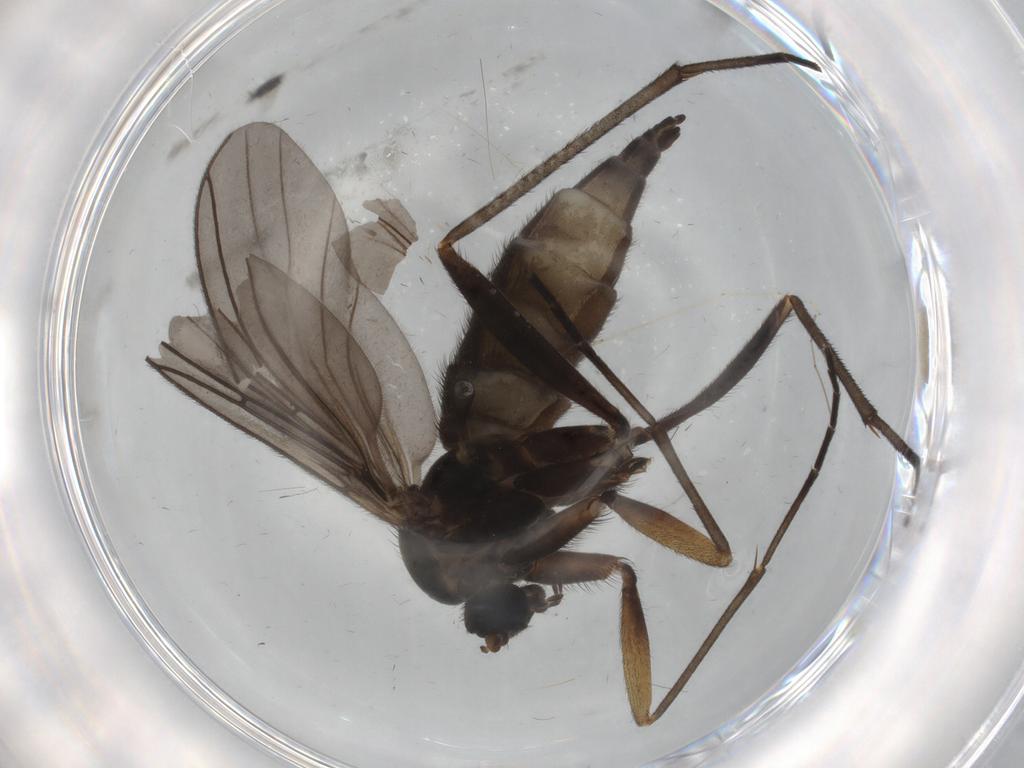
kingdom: Animalia
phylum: Arthropoda
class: Insecta
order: Diptera
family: Sciaridae
